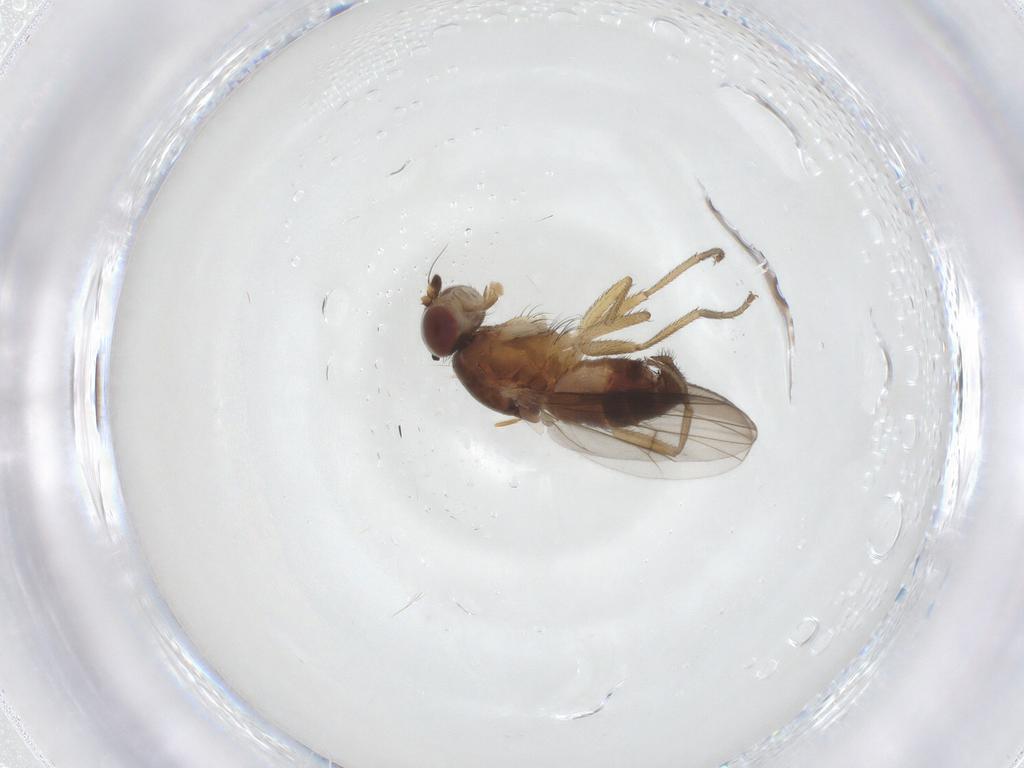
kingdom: Animalia
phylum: Arthropoda
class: Insecta
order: Diptera
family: Heleomyzidae
